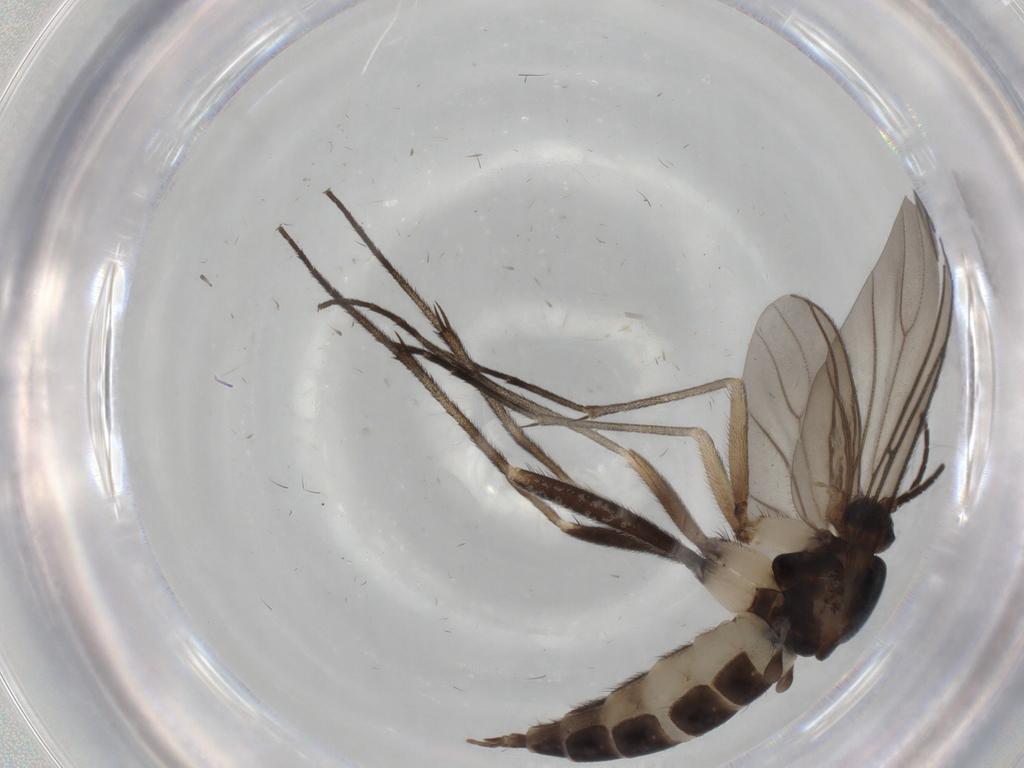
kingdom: Animalia
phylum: Arthropoda
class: Insecta
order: Diptera
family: Sciaridae
